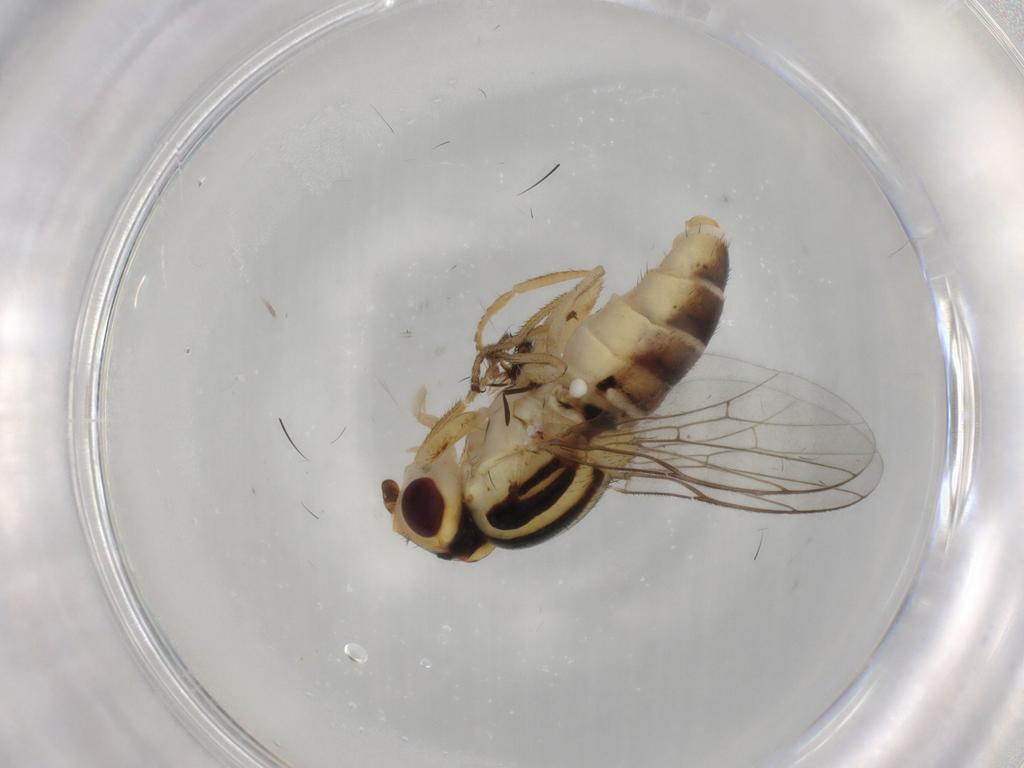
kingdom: Animalia
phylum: Arthropoda
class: Insecta
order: Diptera
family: Chloropidae
